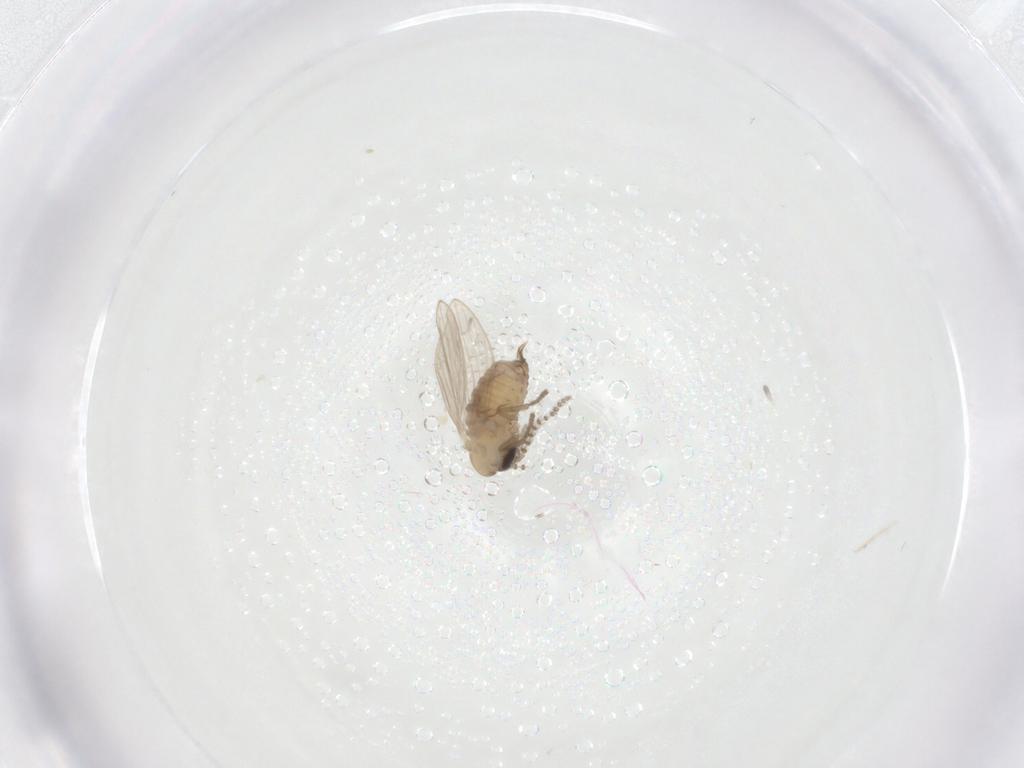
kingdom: Animalia
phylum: Arthropoda
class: Insecta
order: Diptera
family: Psychodidae
